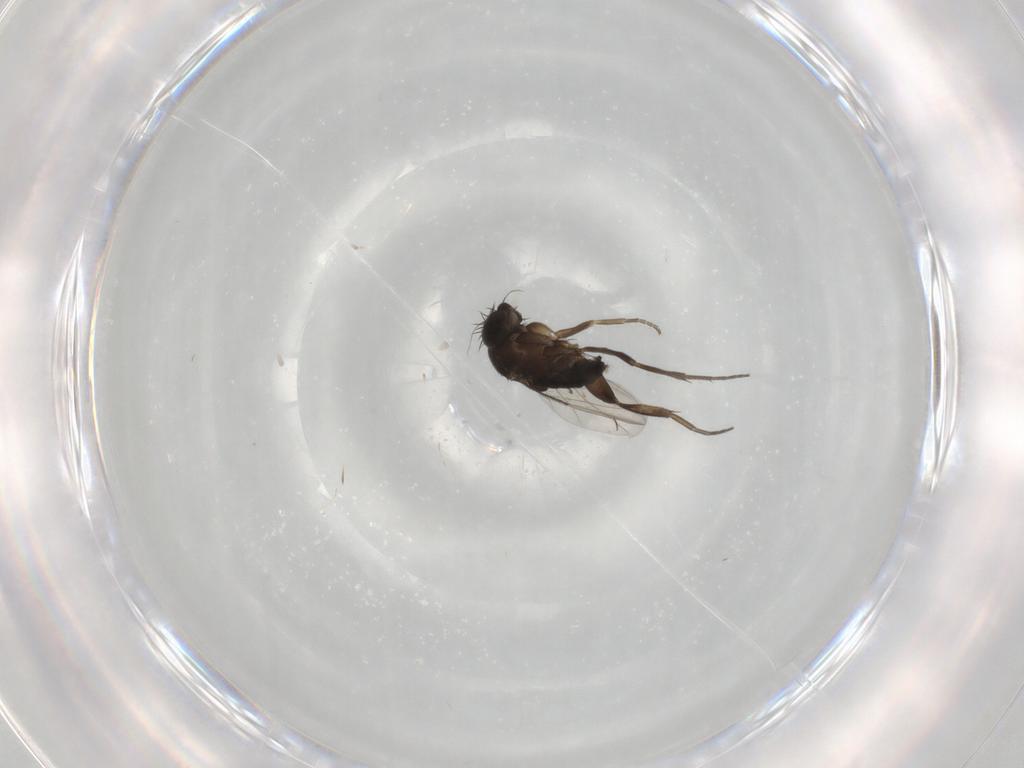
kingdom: Animalia
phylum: Arthropoda
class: Insecta
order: Diptera
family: Phoridae
